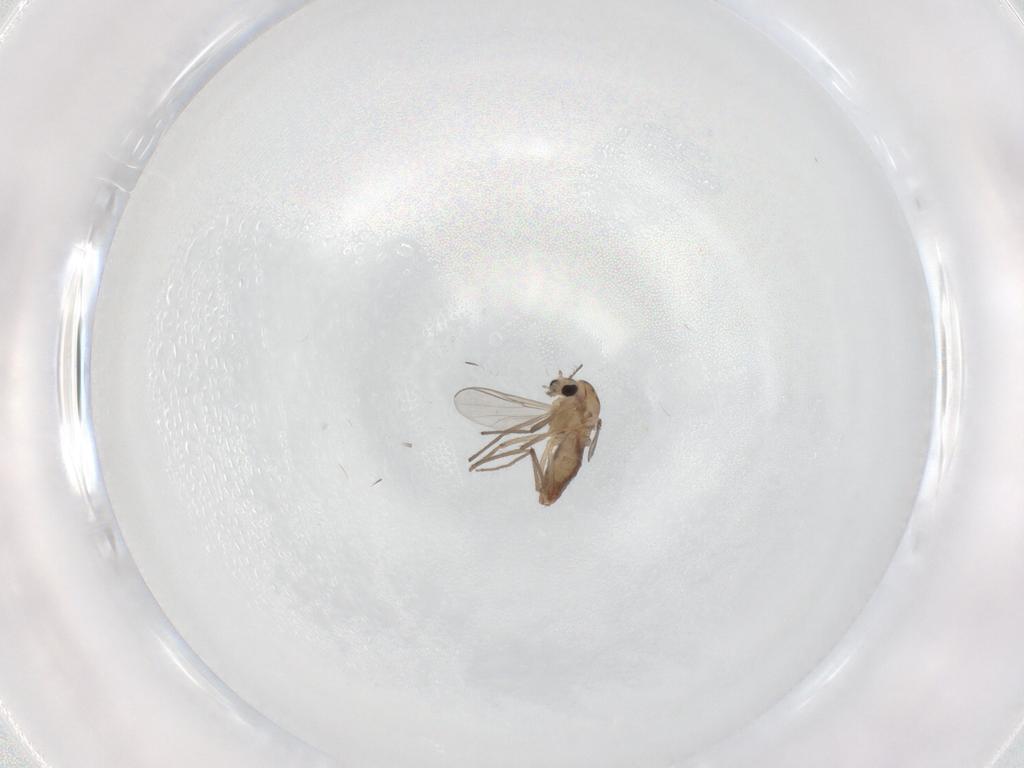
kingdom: Animalia
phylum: Arthropoda
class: Insecta
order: Diptera
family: Chironomidae
